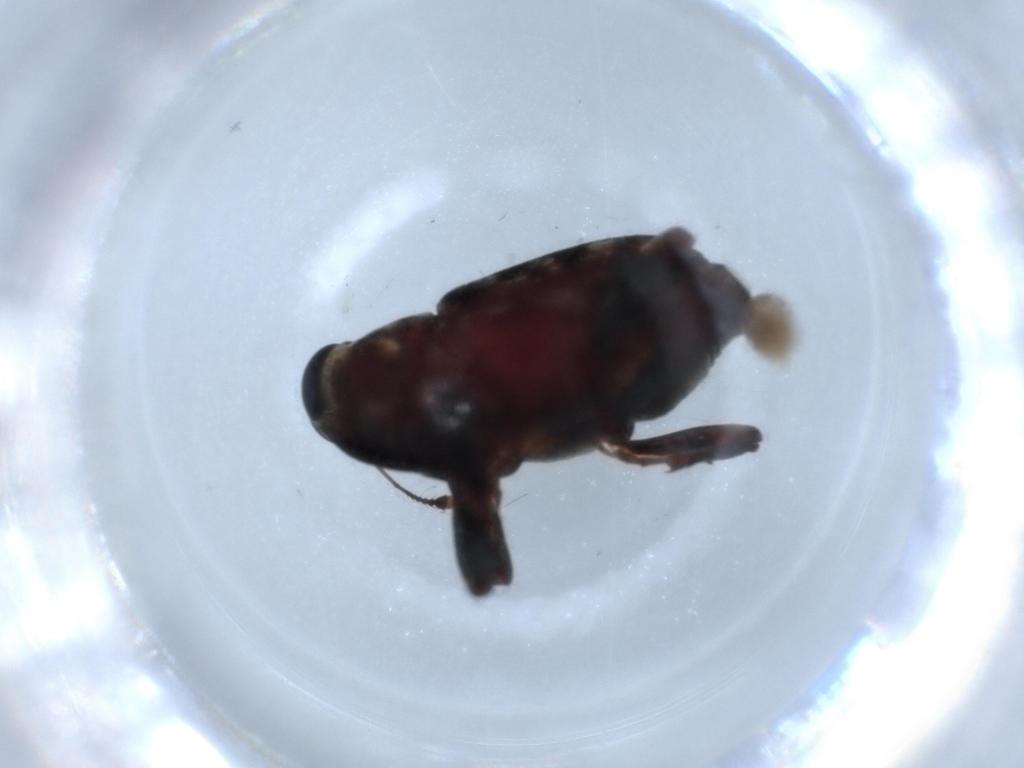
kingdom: Animalia
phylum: Arthropoda
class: Insecta
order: Coleoptera
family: Curculionidae
